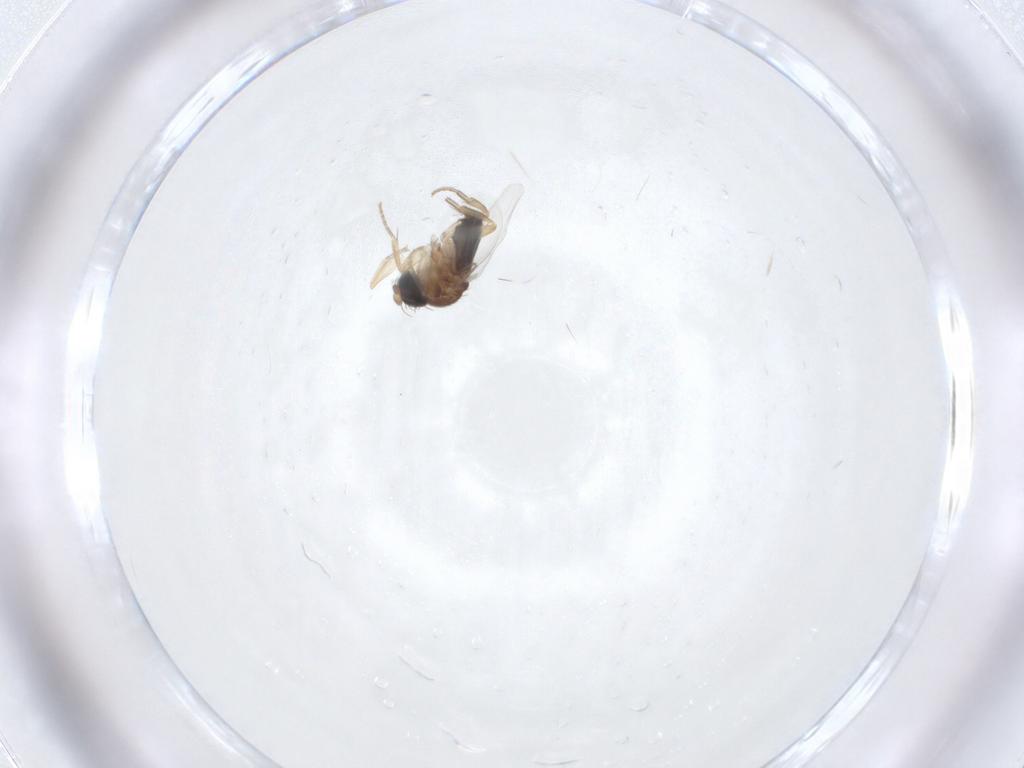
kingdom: Animalia
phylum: Arthropoda
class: Insecta
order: Diptera
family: Phoridae
